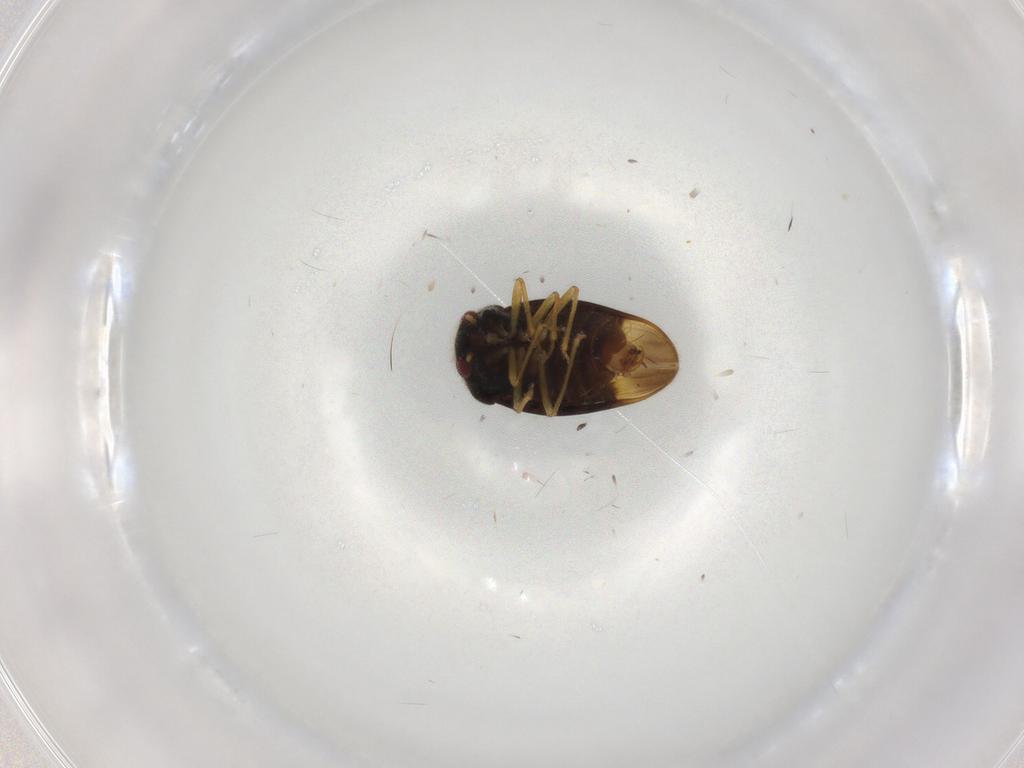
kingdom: Animalia
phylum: Arthropoda
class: Insecta
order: Hemiptera
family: Schizopteridae
